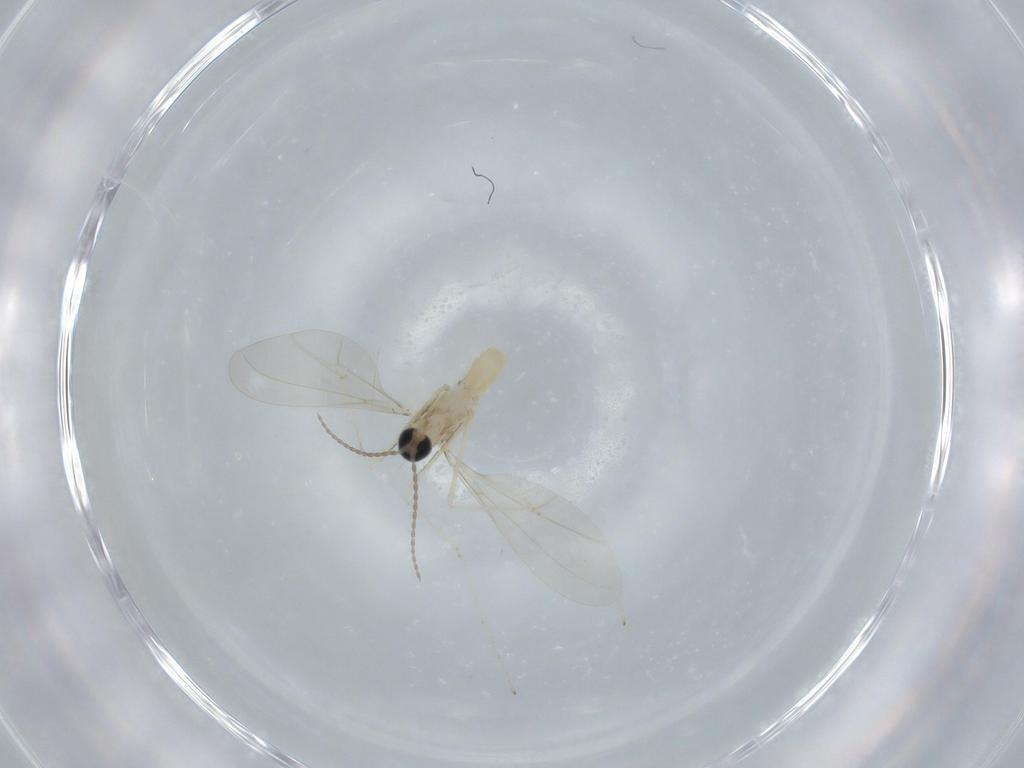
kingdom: Animalia
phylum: Arthropoda
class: Insecta
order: Diptera
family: Cecidomyiidae
